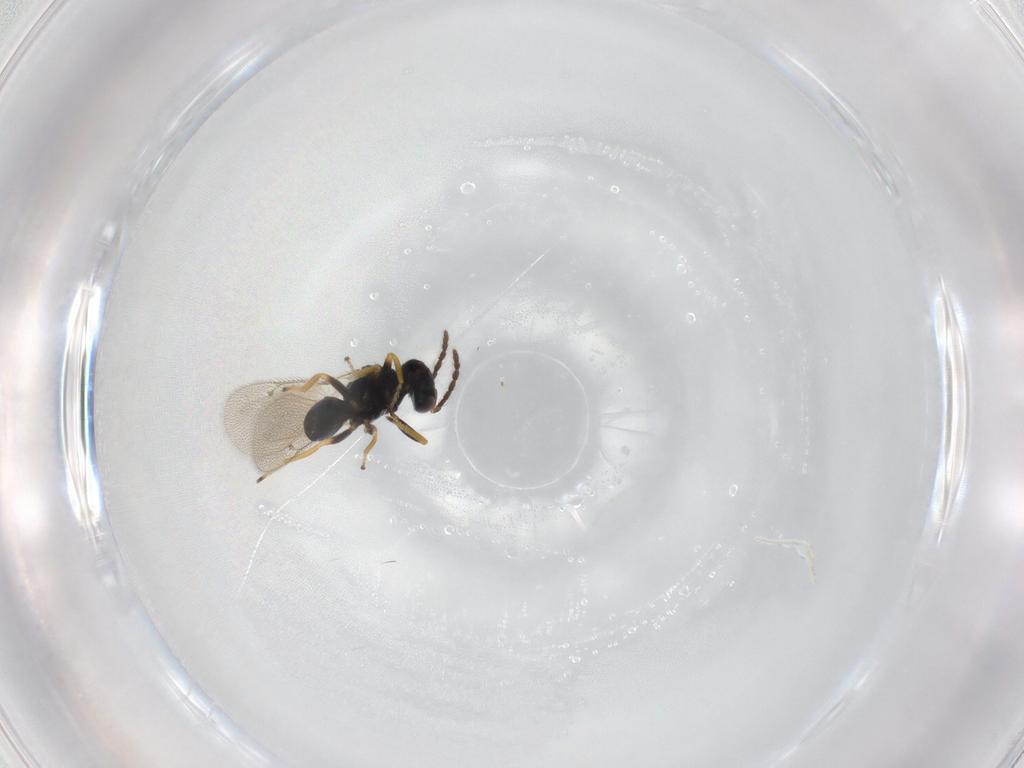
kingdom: Animalia
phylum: Arthropoda
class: Insecta
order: Hymenoptera
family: Eulophidae
